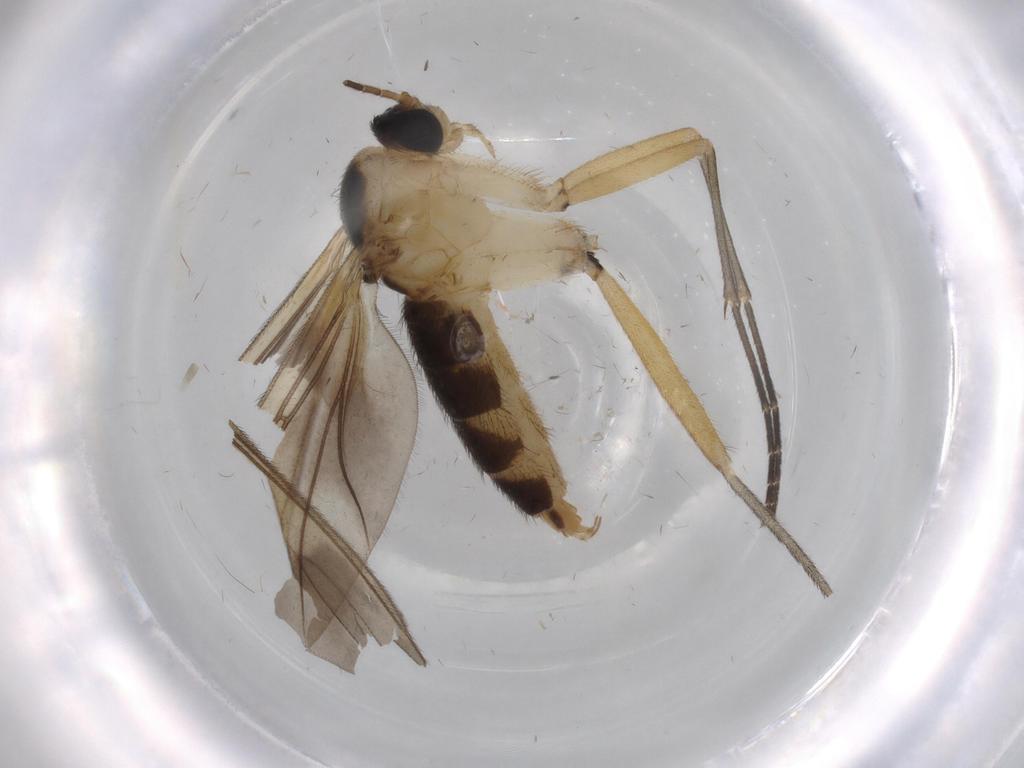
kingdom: Animalia
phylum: Arthropoda
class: Insecta
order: Diptera
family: Sciaridae
